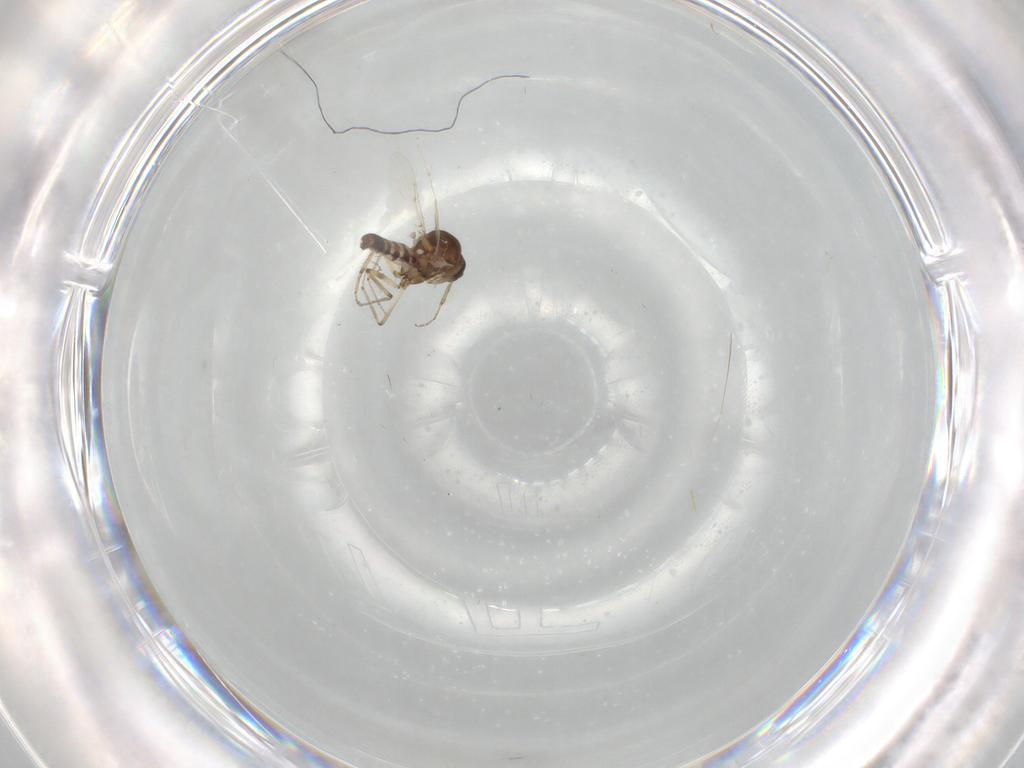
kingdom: Animalia
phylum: Arthropoda
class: Insecta
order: Diptera
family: Ceratopogonidae
